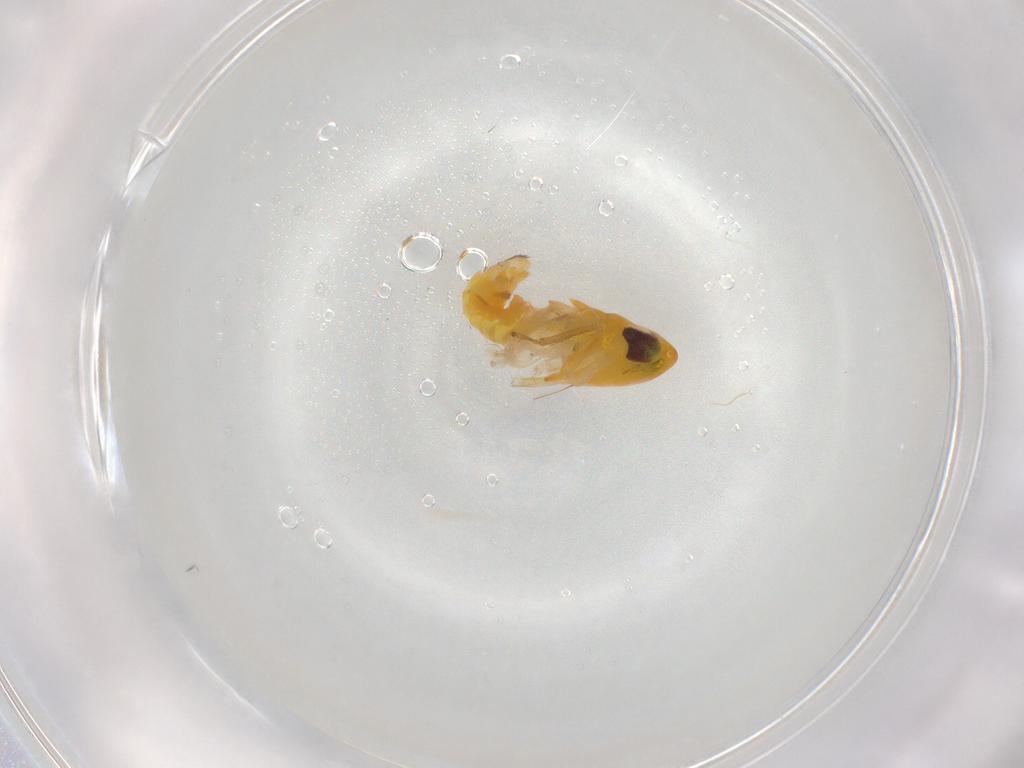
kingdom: Animalia
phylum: Arthropoda
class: Insecta
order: Hemiptera
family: Cicadellidae
